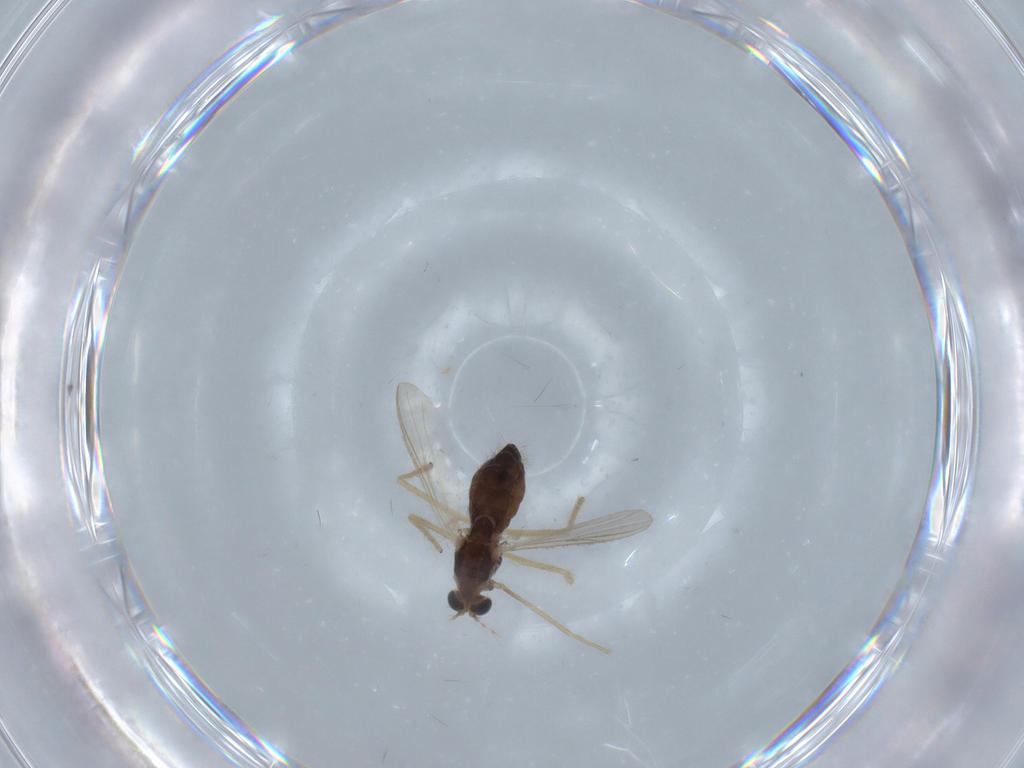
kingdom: Animalia
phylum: Arthropoda
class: Insecta
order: Diptera
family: Chironomidae
